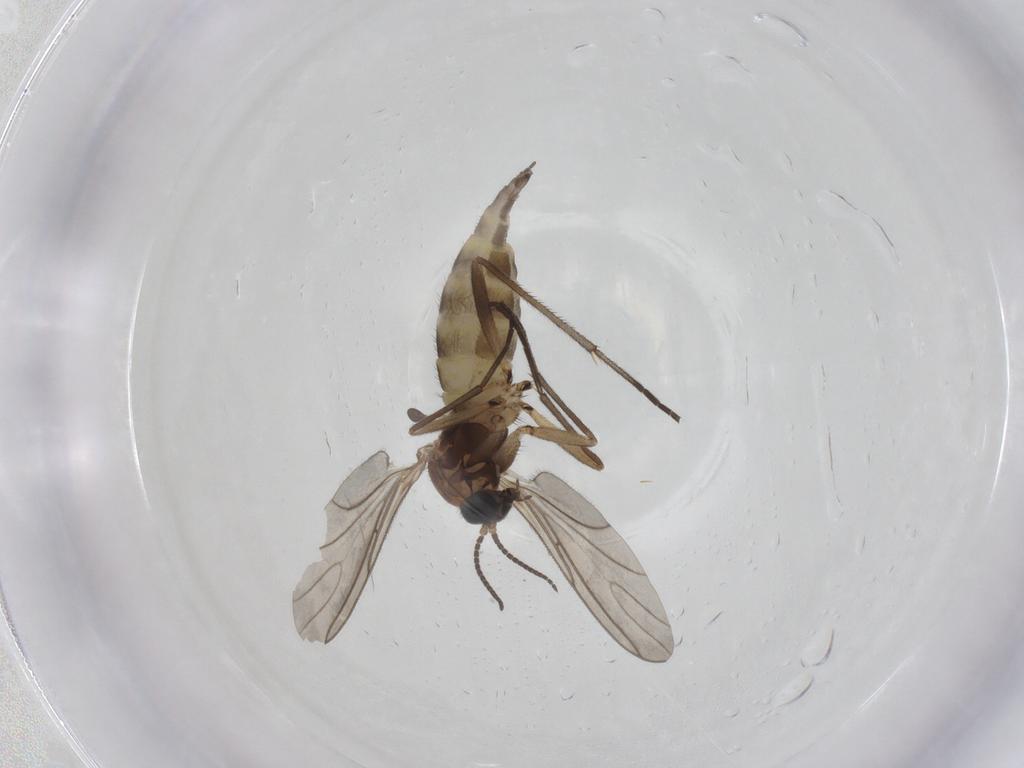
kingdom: Animalia
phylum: Arthropoda
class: Insecta
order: Diptera
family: Sciaridae
